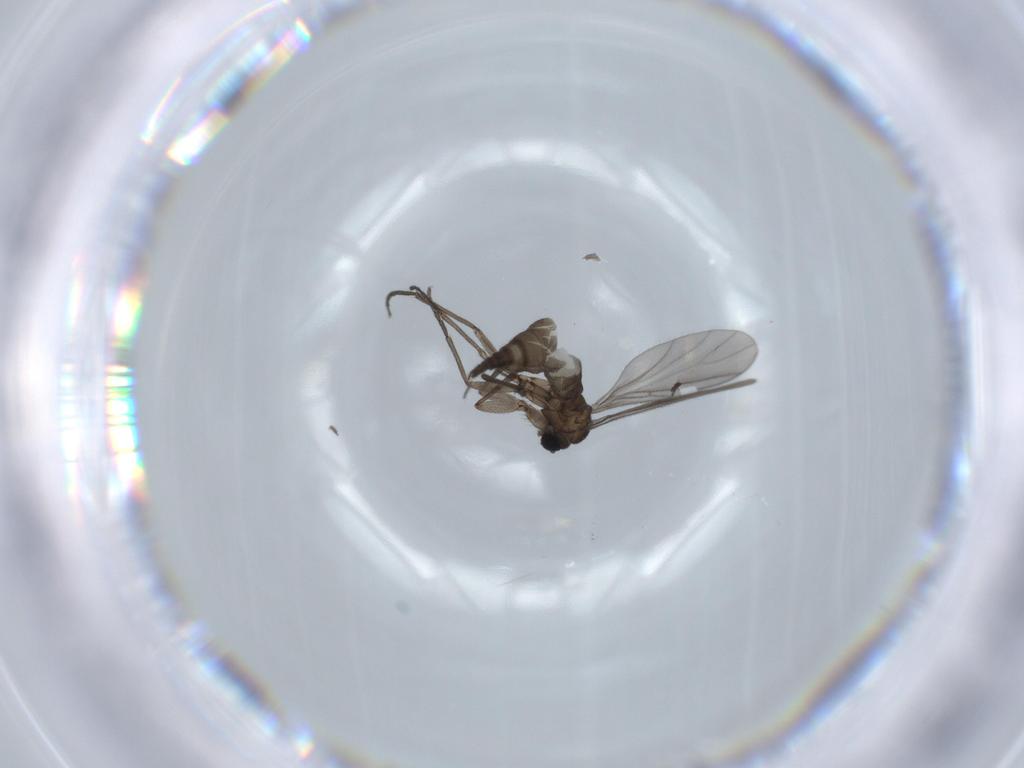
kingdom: Animalia
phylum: Arthropoda
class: Insecta
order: Diptera
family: Sciaridae
